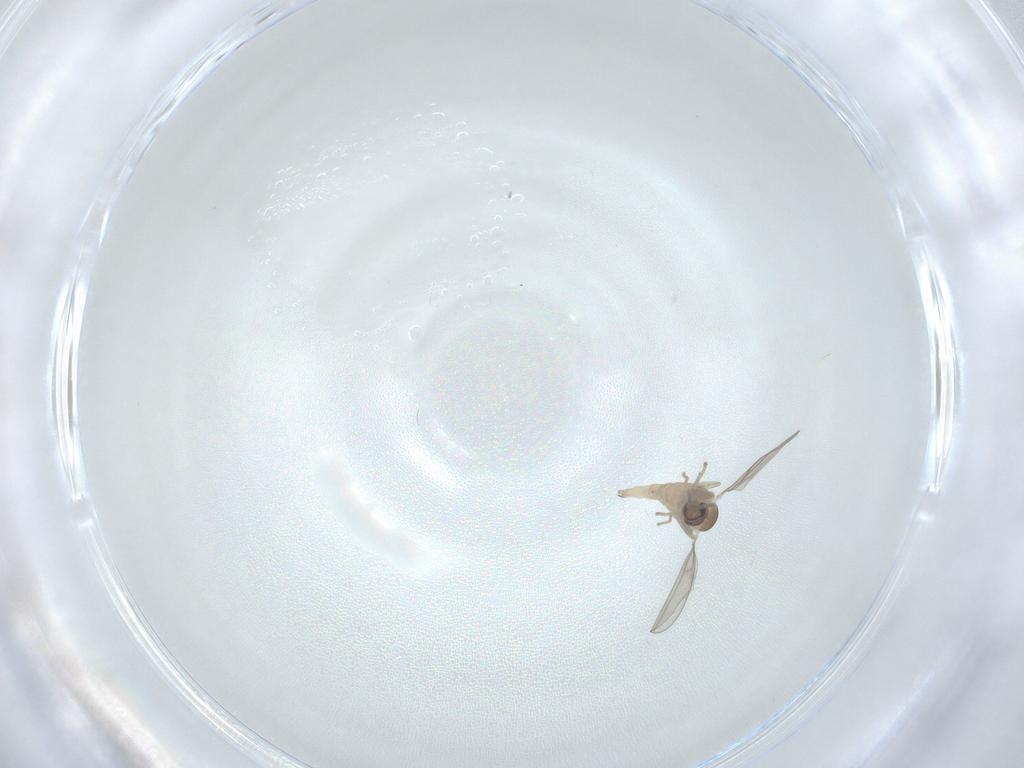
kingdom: Animalia
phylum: Arthropoda
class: Insecta
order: Diptera
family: Cecidomyiidae
